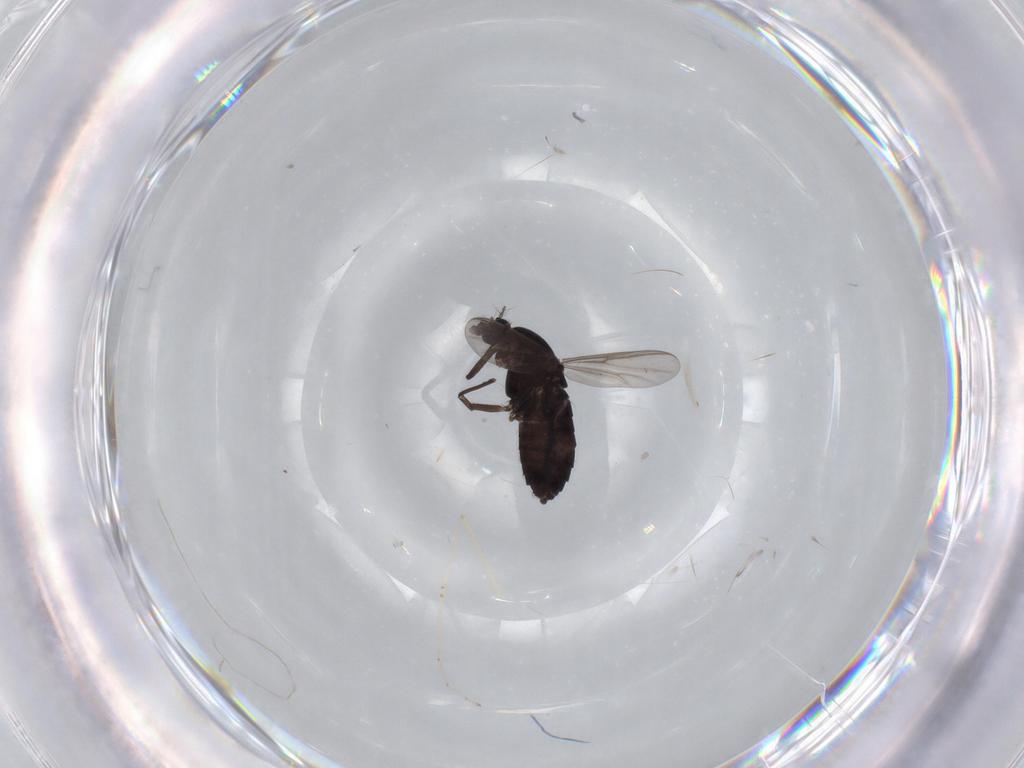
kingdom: Animalia
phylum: Arthropoda
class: Insecta
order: Diptera
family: Chironomidae
